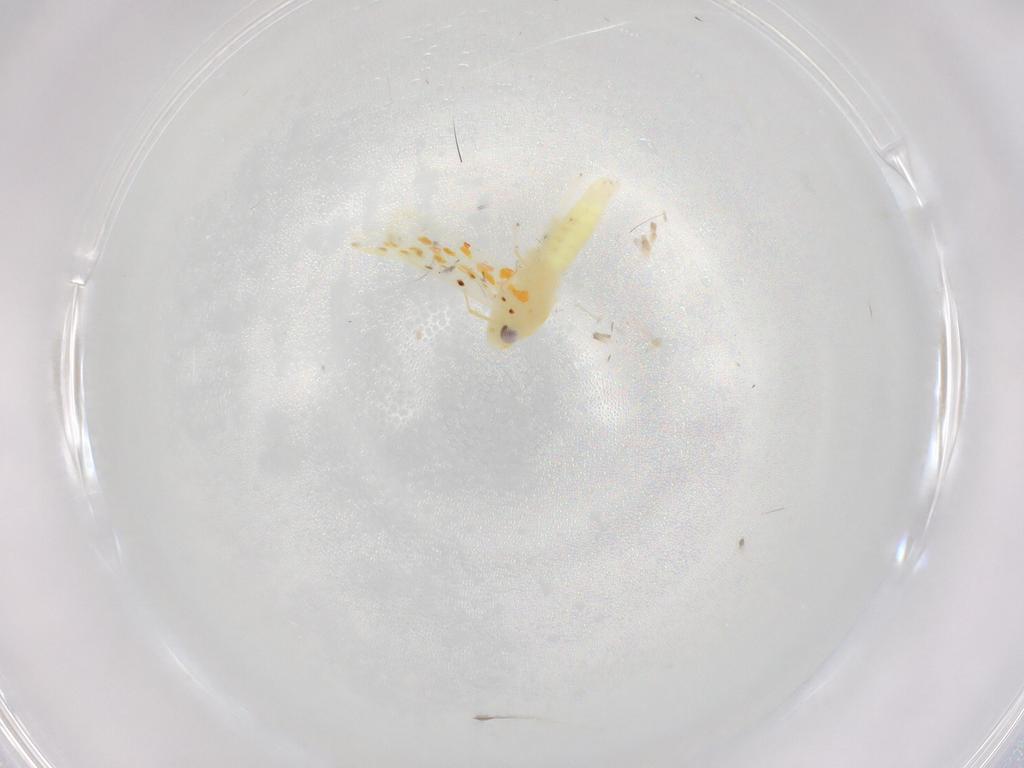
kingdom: Animalia
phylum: Arthropoda
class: Insecta
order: Hemiptera
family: Cicadellidae
